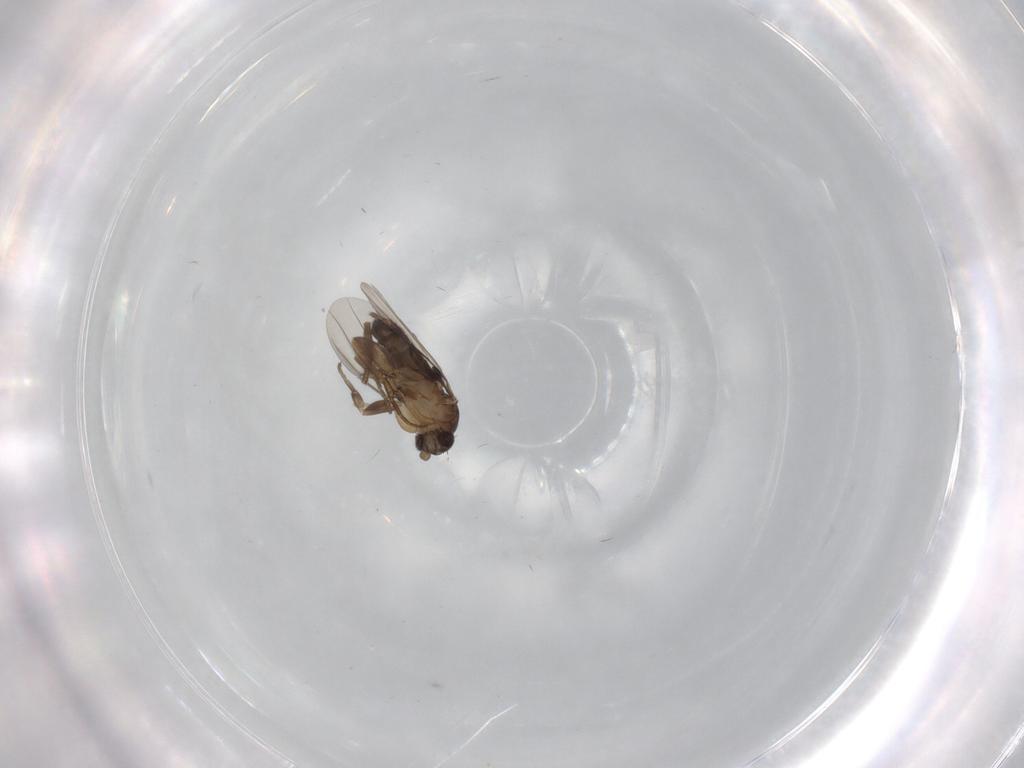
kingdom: Animalia
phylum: Arthropoda
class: Insecta
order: Diptera
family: Phoridae
